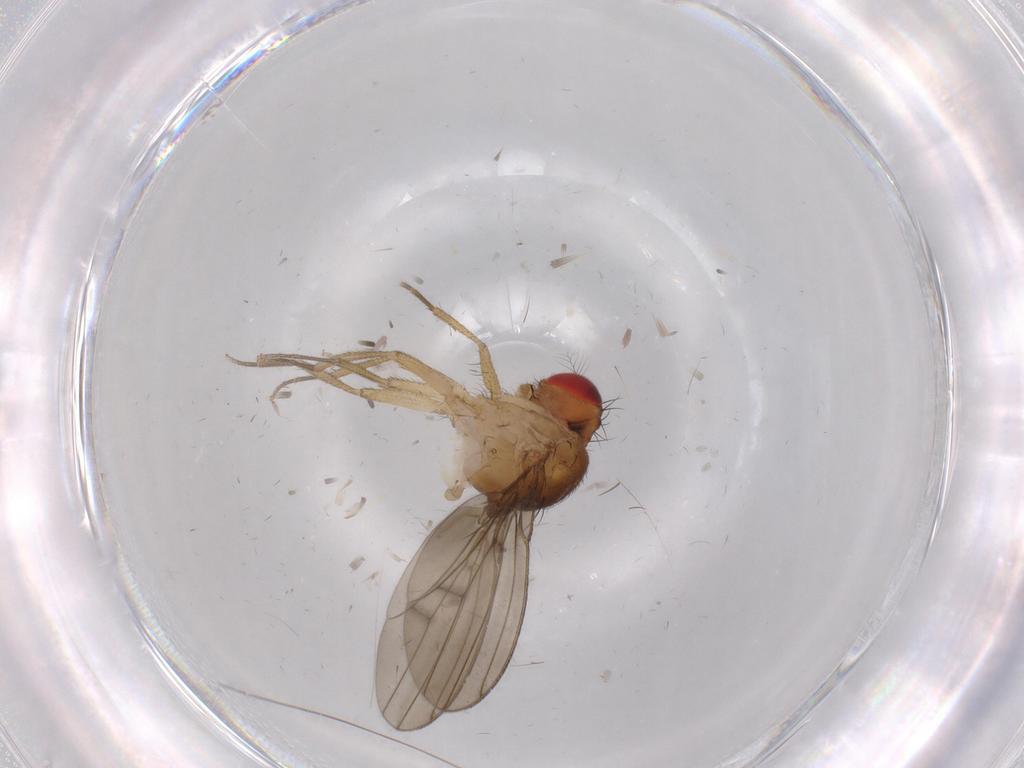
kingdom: Animalia
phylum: Arthropoda
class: Insecta
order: Diptera
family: Drosophilidae
